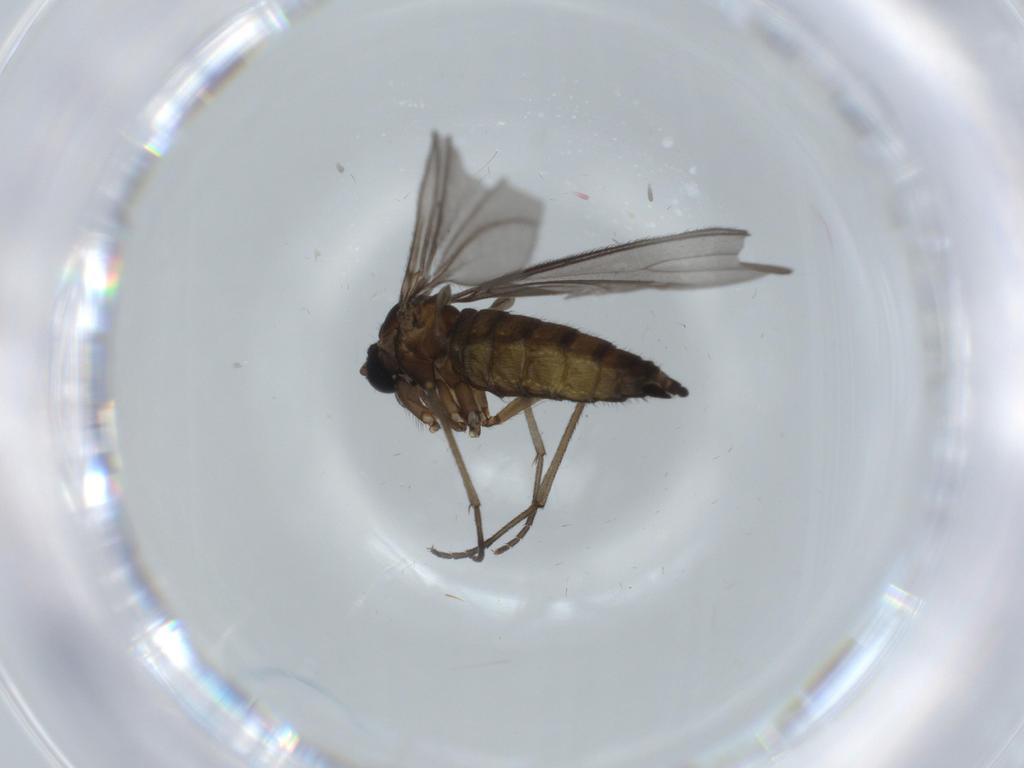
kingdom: Animalia
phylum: Arthropoda
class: Insecta
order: Diptera
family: Sciaridae
